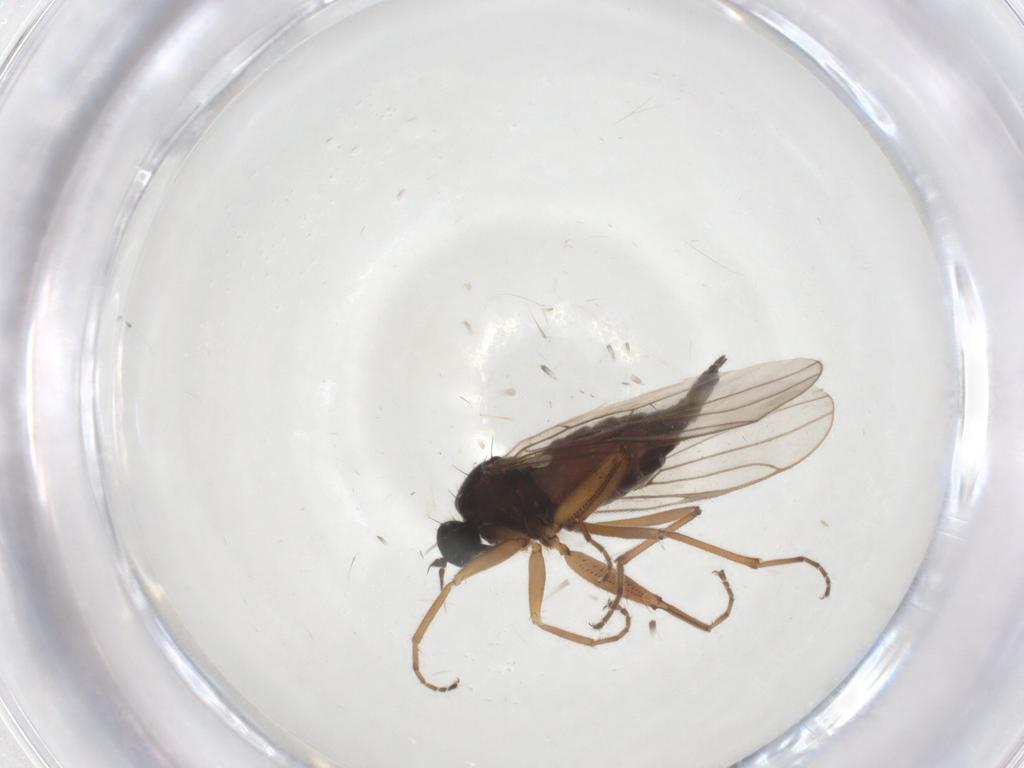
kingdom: Animalia
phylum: Arthropoda
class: Insecta
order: Diptera
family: Hybotidae
